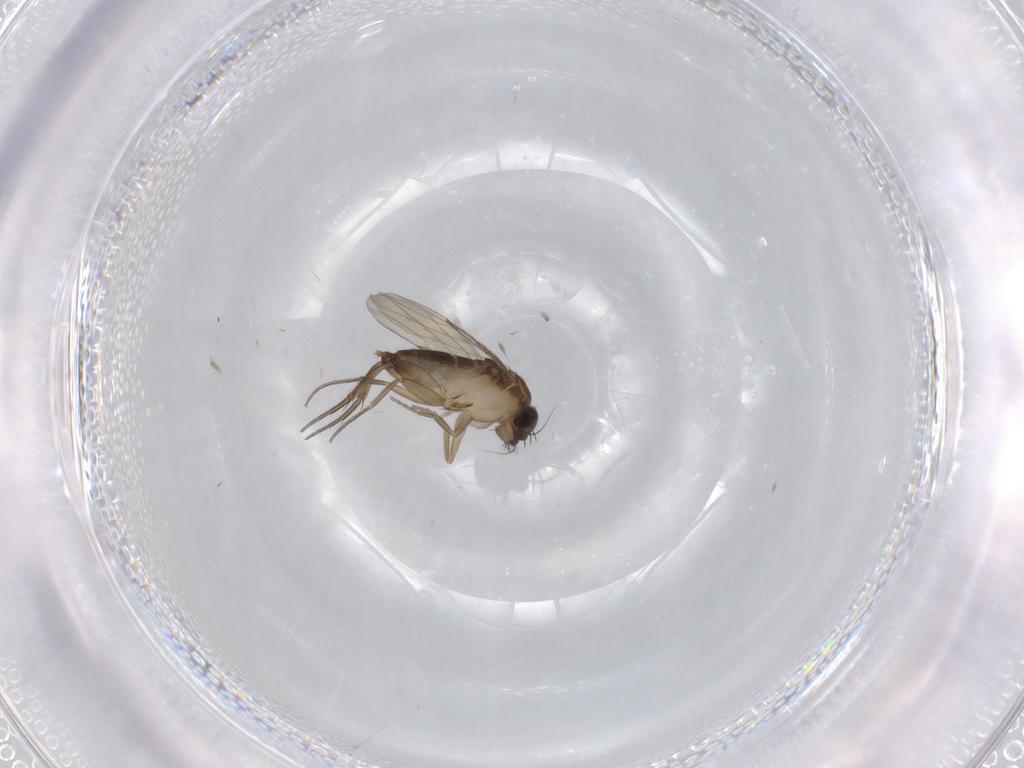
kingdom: Animalia
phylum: Arthropoda
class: Insecta
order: Diptera
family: Phoridae
